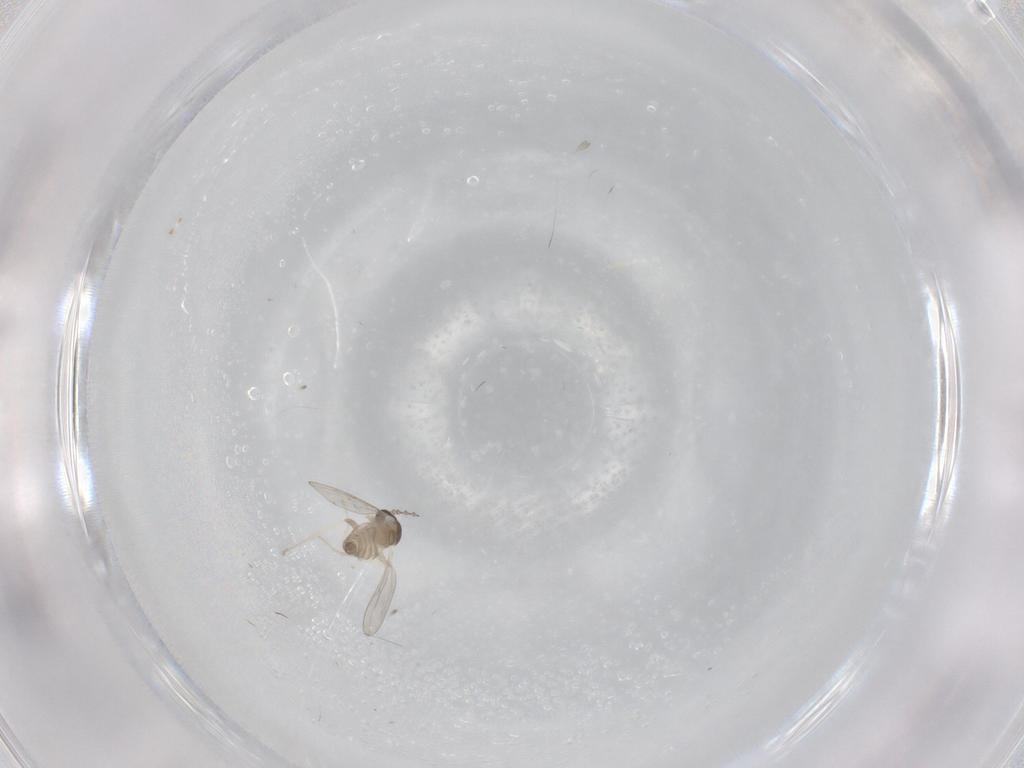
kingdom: Animalia
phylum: Arthropoda
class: Insecta
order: Diptera
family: Cecidomyiidae
